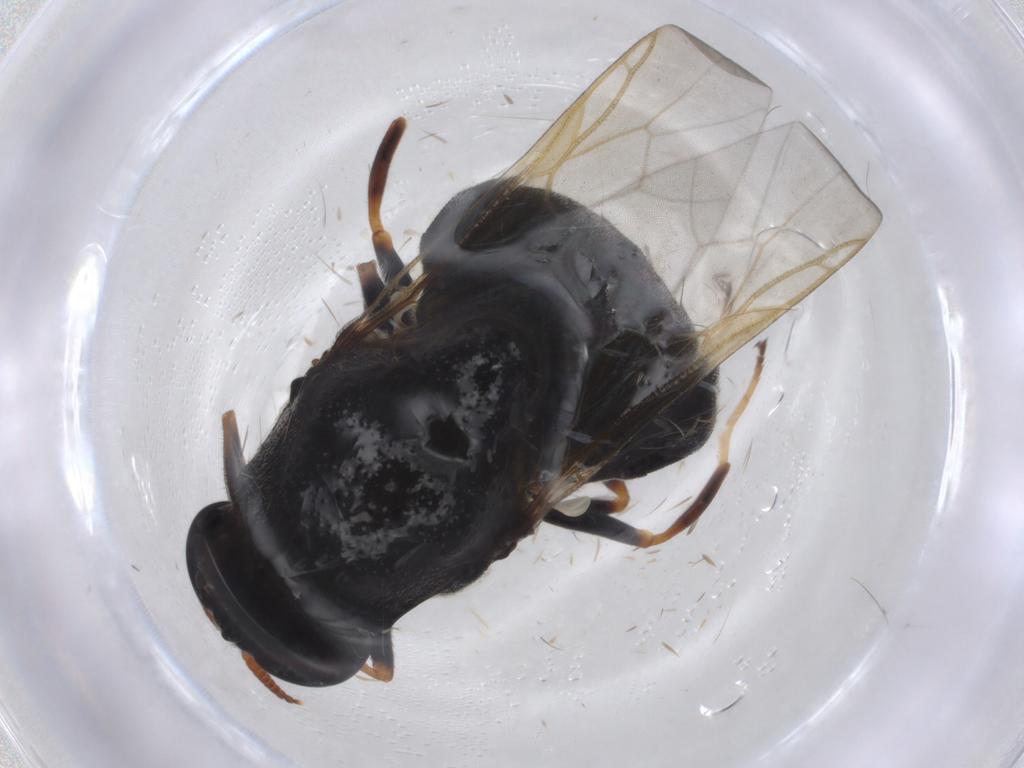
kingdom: Animalia
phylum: Arthropoda
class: Insecta
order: Diptera
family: Stratiomyidae
